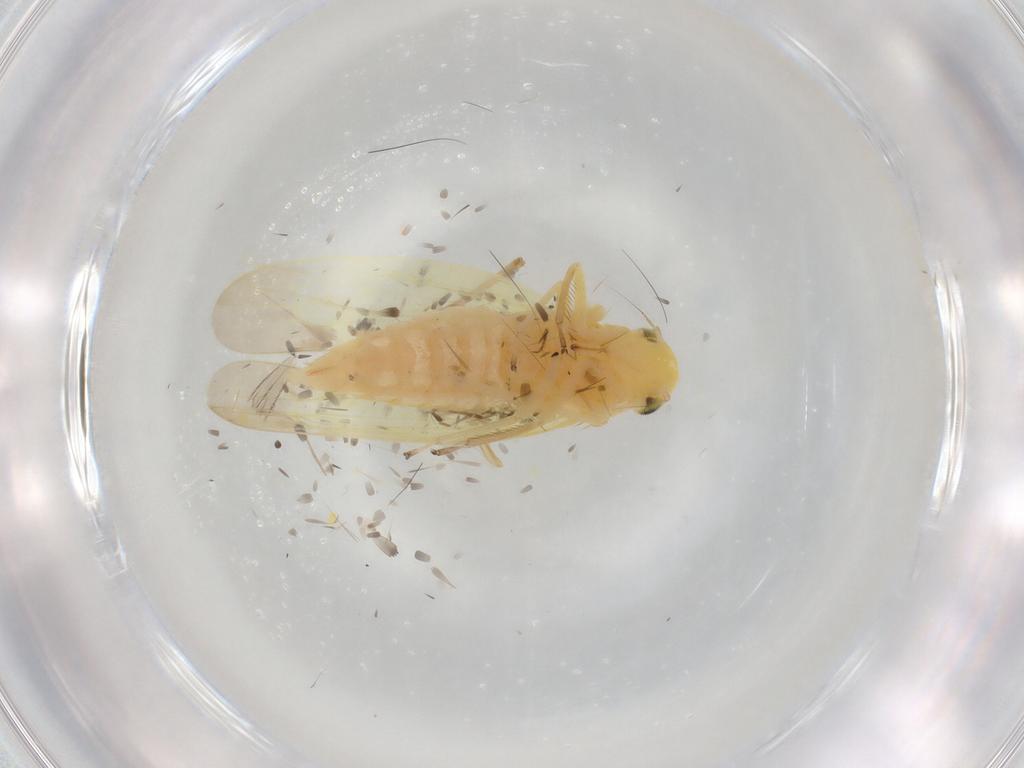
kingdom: Animalia
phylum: Arthropoda
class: Insecta
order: Hemiptera
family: Cicadellidae
